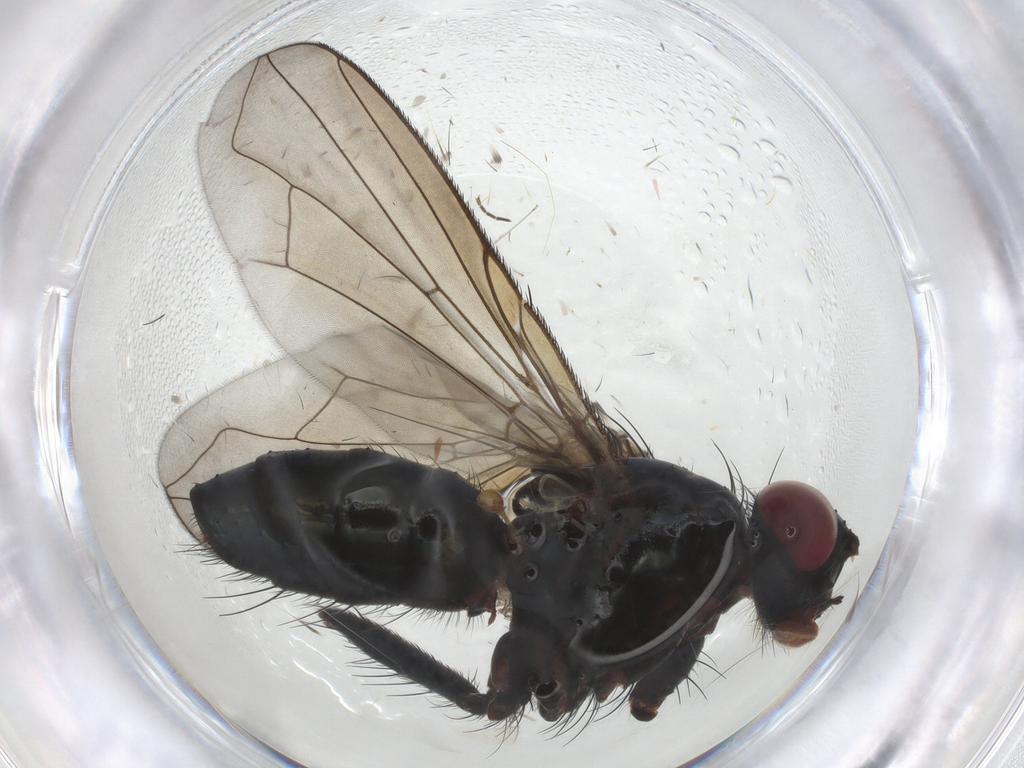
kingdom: Animalia
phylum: Arthropoda
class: Insecta
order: Diptera
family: Tachinidae
